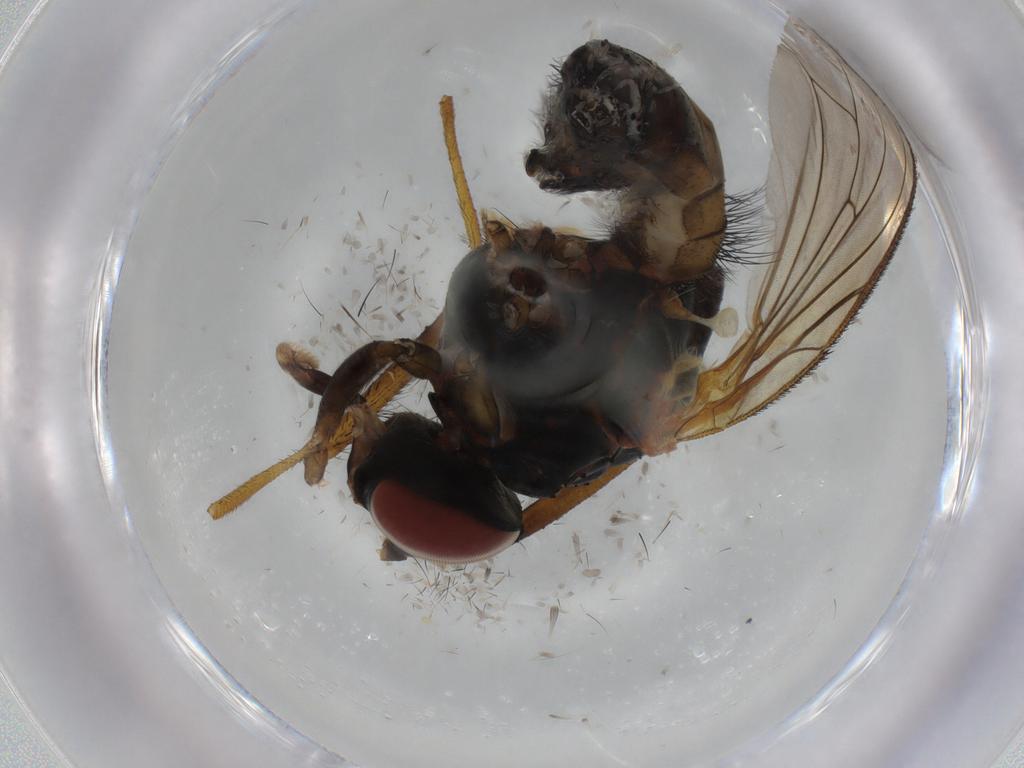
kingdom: Animalia
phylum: Arthropoda
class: Insecta
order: Diptera
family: Anthomyiidae
